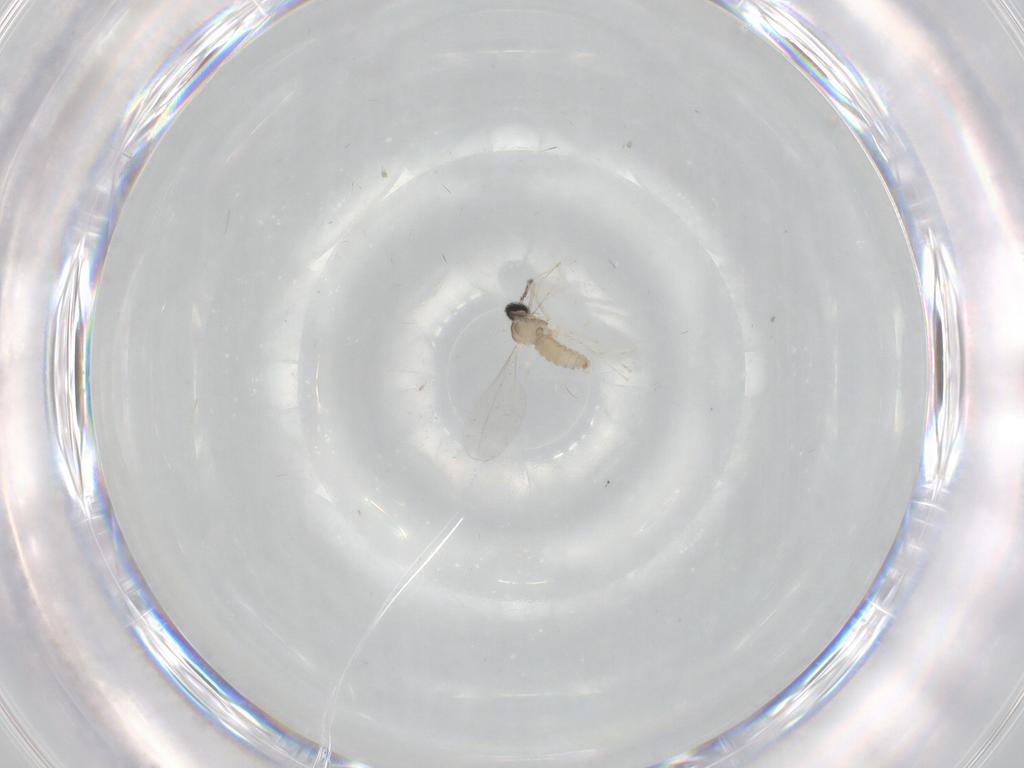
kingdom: Animalia
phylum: Arthropoda
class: Insecta
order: Diptera
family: Cecidomyiidae
